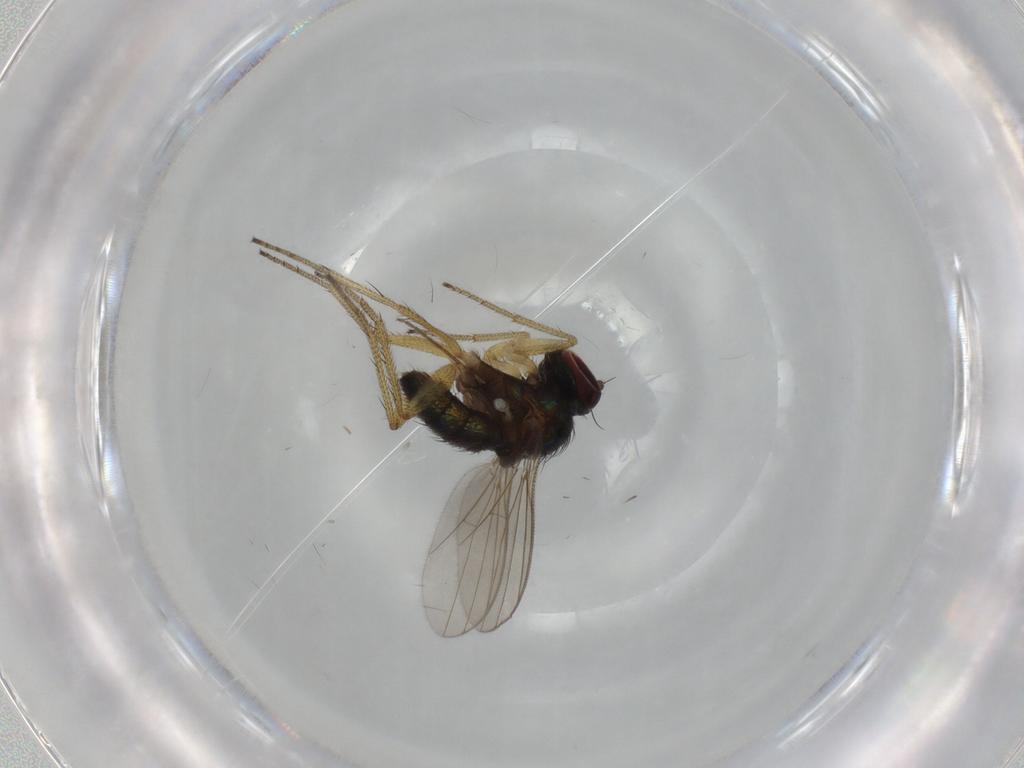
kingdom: Animalia
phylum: Arthropoda
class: Insecta
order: Diptera
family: Dolichopodidae
